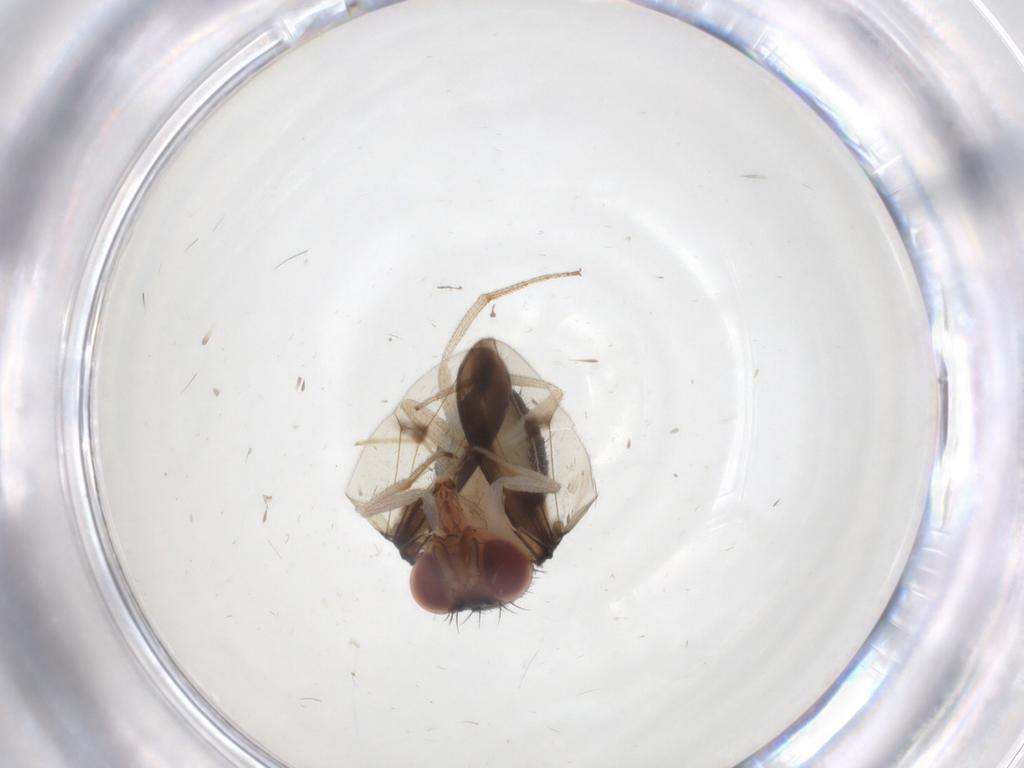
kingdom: Animalia
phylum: Arthropoda
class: Insecta
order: Diptera
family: Drosophilidae
